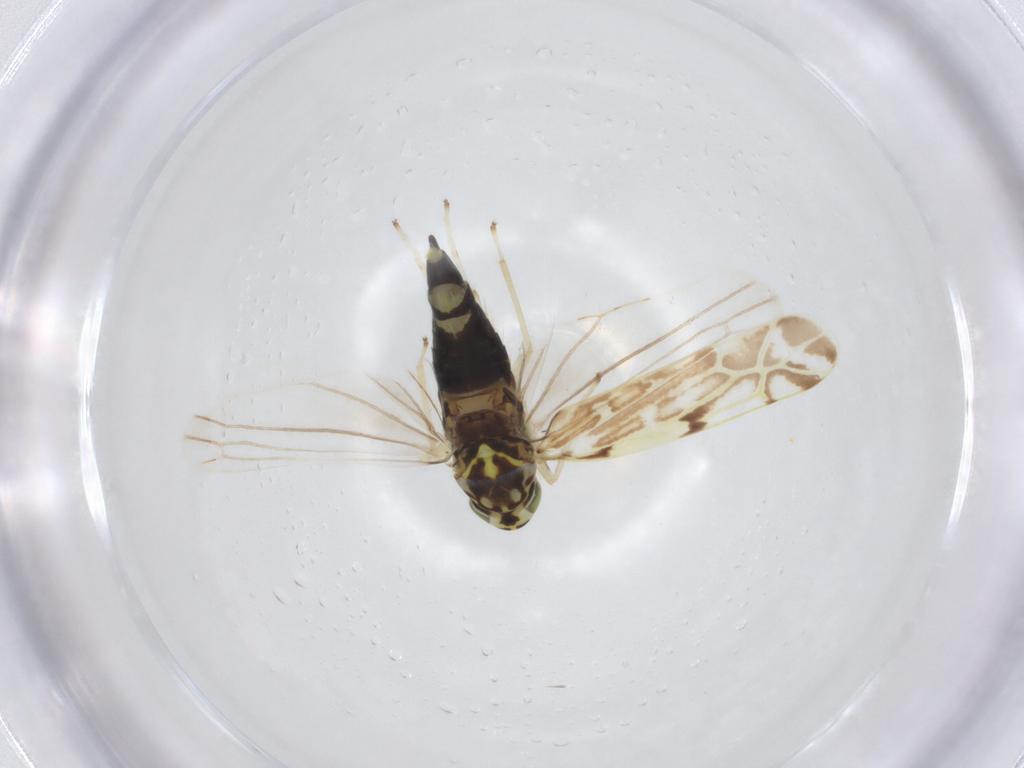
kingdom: Animalia
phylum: Arthropoda
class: Insecta
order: Hemiptera
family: Cicadellidae
